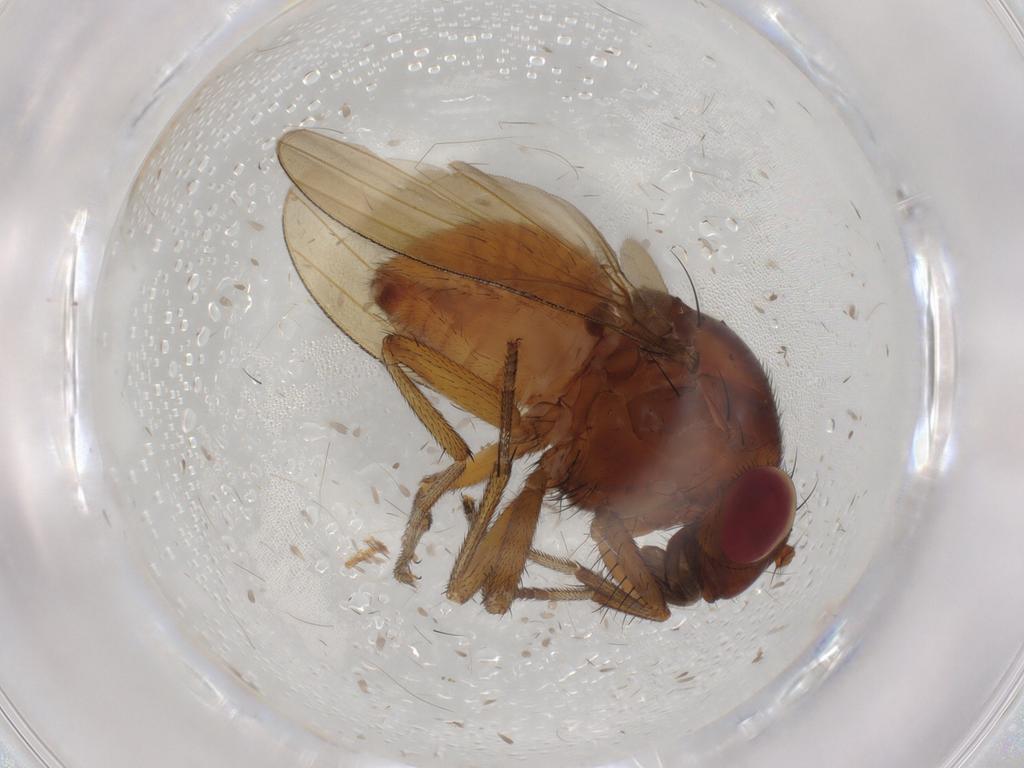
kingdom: Animalia
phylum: Arthropoda
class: Insecta
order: Diptera
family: Lauxaniidae
